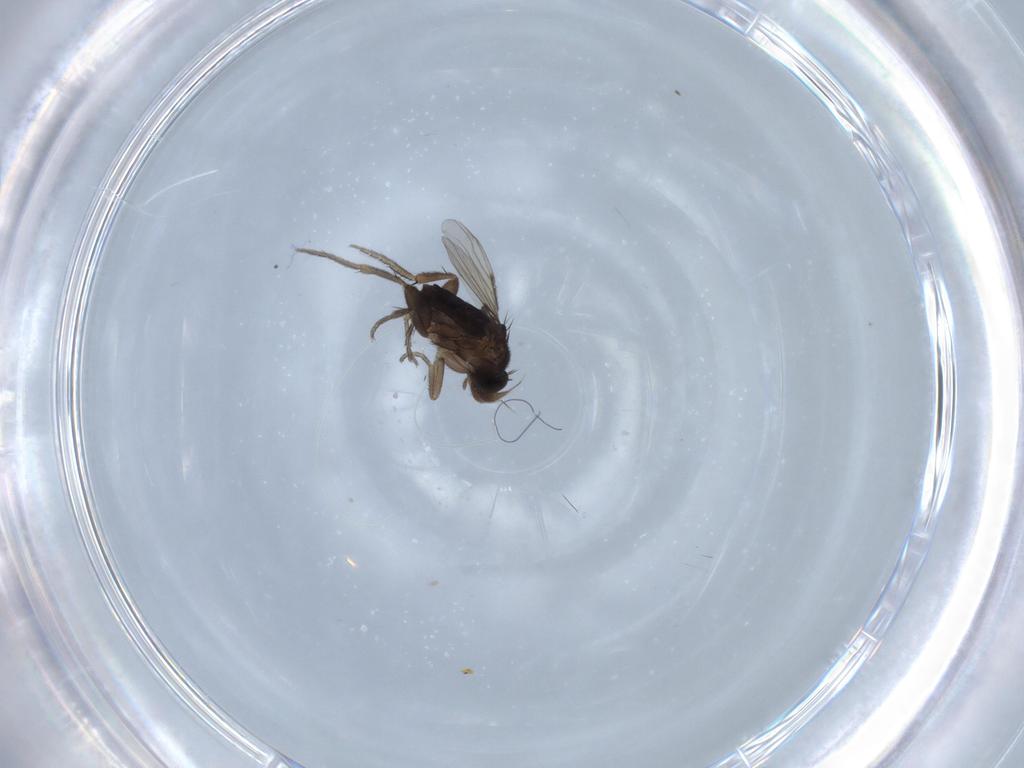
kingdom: Animalia
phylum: Arthropoda
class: Insecta
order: Diptera
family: Phoridae
